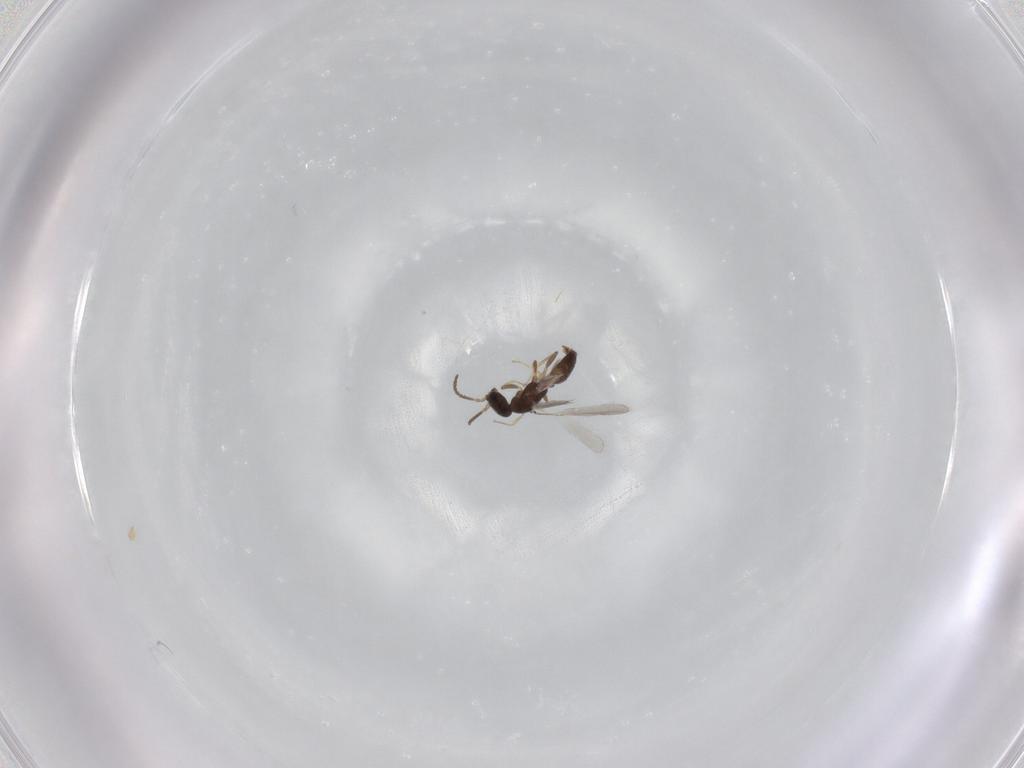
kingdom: Animalia
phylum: Arthropoda
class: Insecta
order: Hymenoptera
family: Bethylidae
